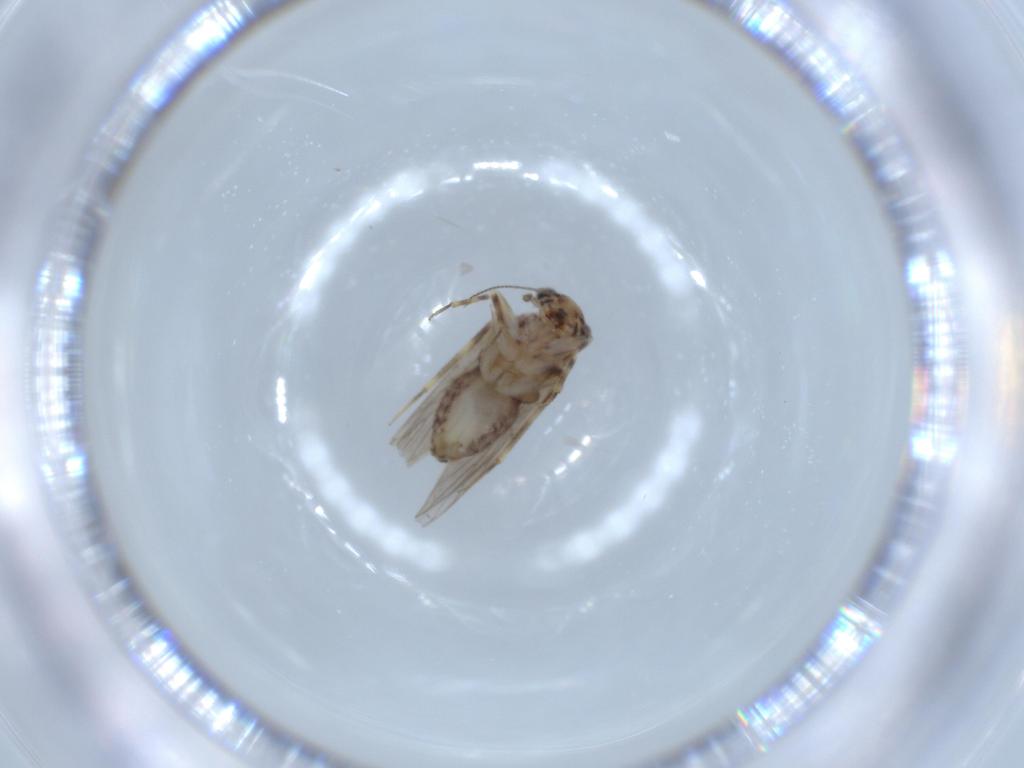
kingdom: Animalia
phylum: Arthropoda
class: Insecta
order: Psocodea
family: Lepidopsocidae
